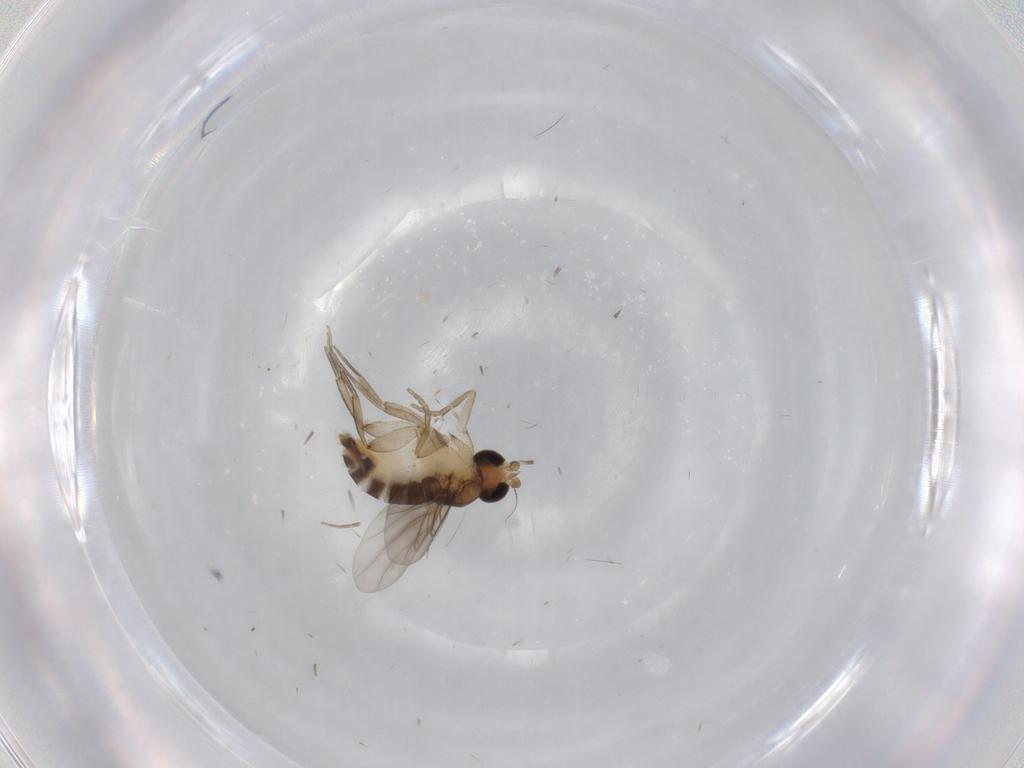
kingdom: Animalia
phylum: Arthropoda
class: Insecta
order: Diptera
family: Phoridae
